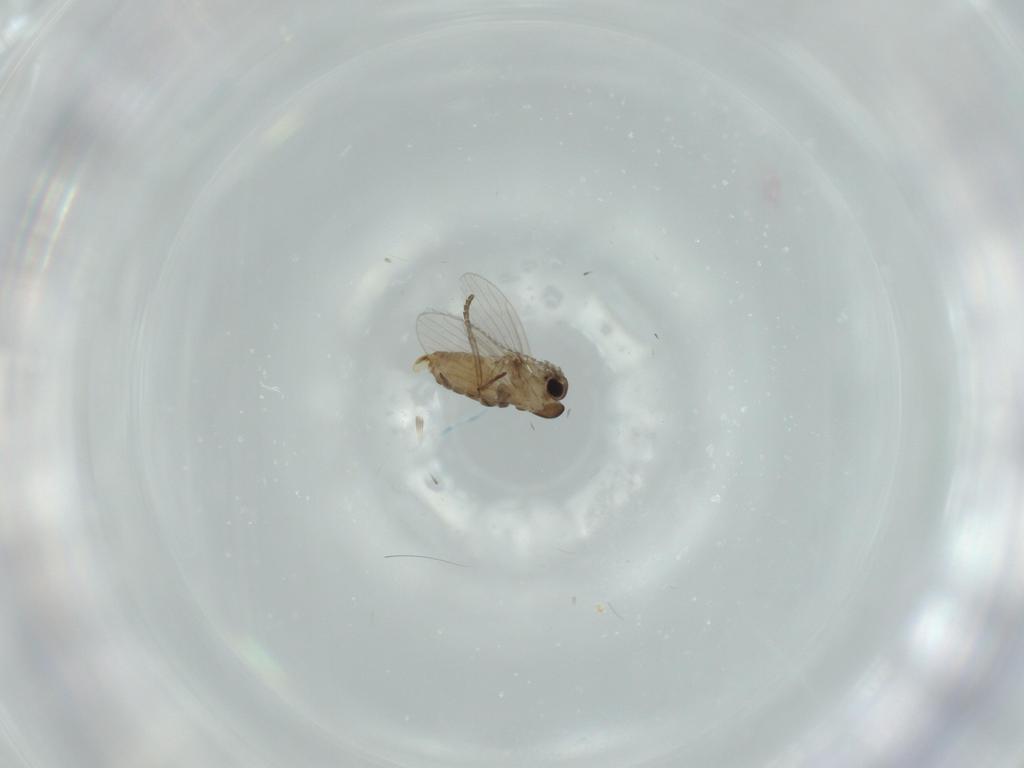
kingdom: Animalia
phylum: Arthropoda
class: Insecta
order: Diptera
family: Psychodidae
